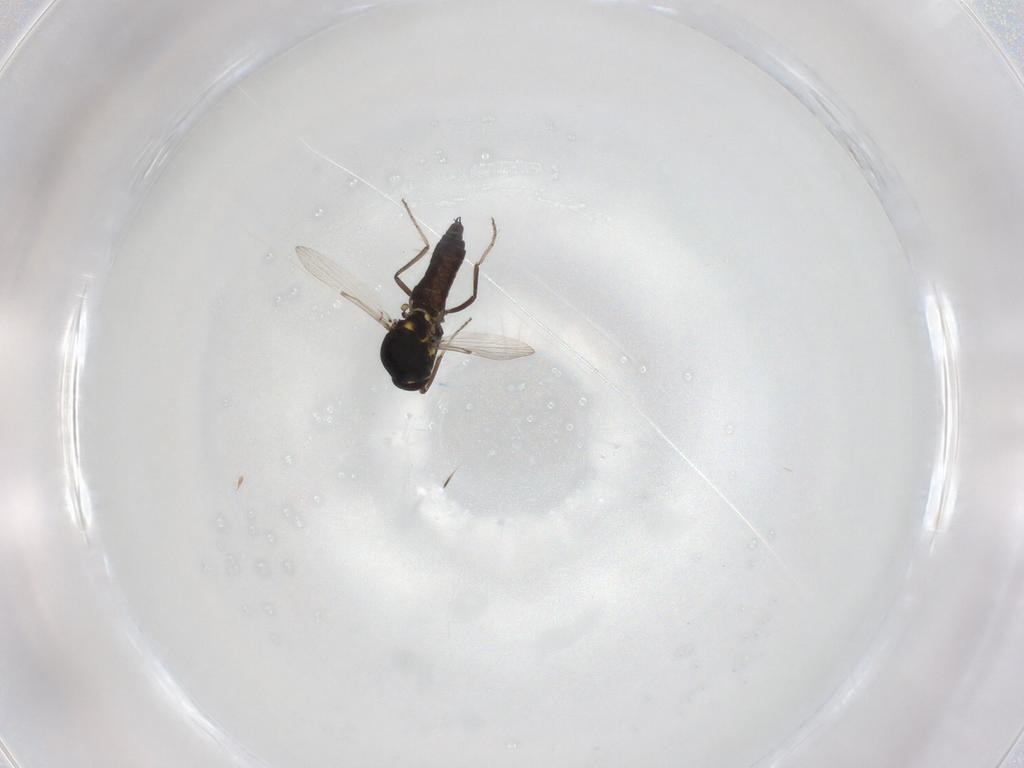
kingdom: Animalia
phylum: Arthropoda
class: Insecta
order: Diptera
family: Ceratopogonidae
